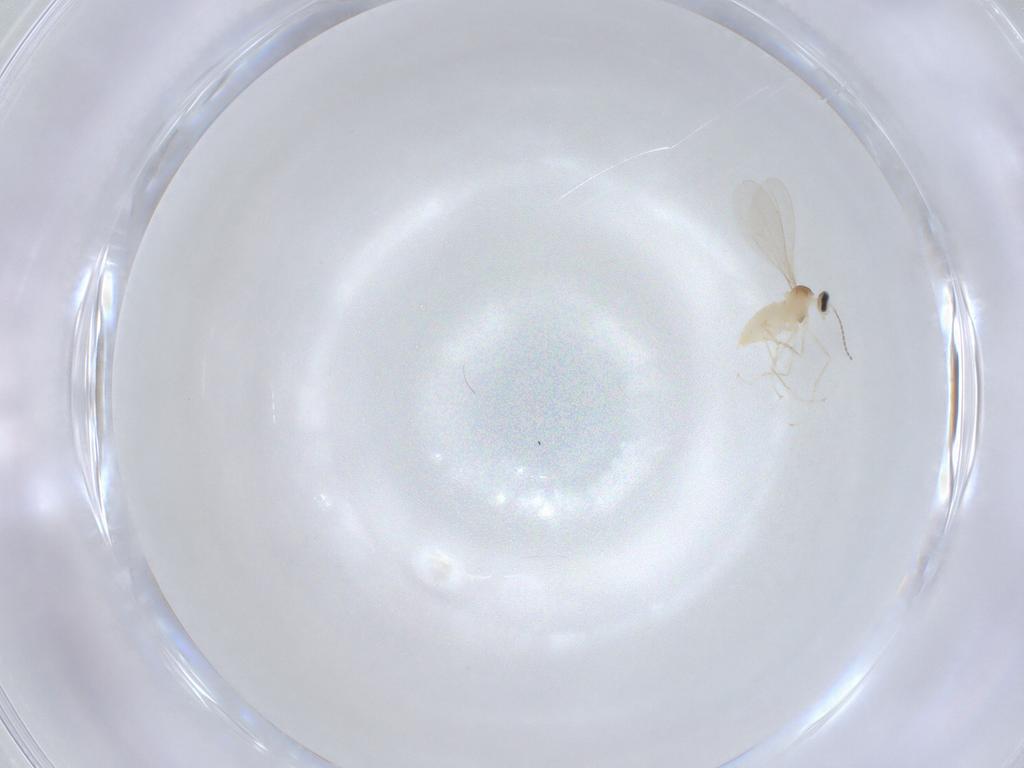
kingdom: Animalia
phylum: Arthropoda
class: Insecta
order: Diptera
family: Cecidomyiidae
